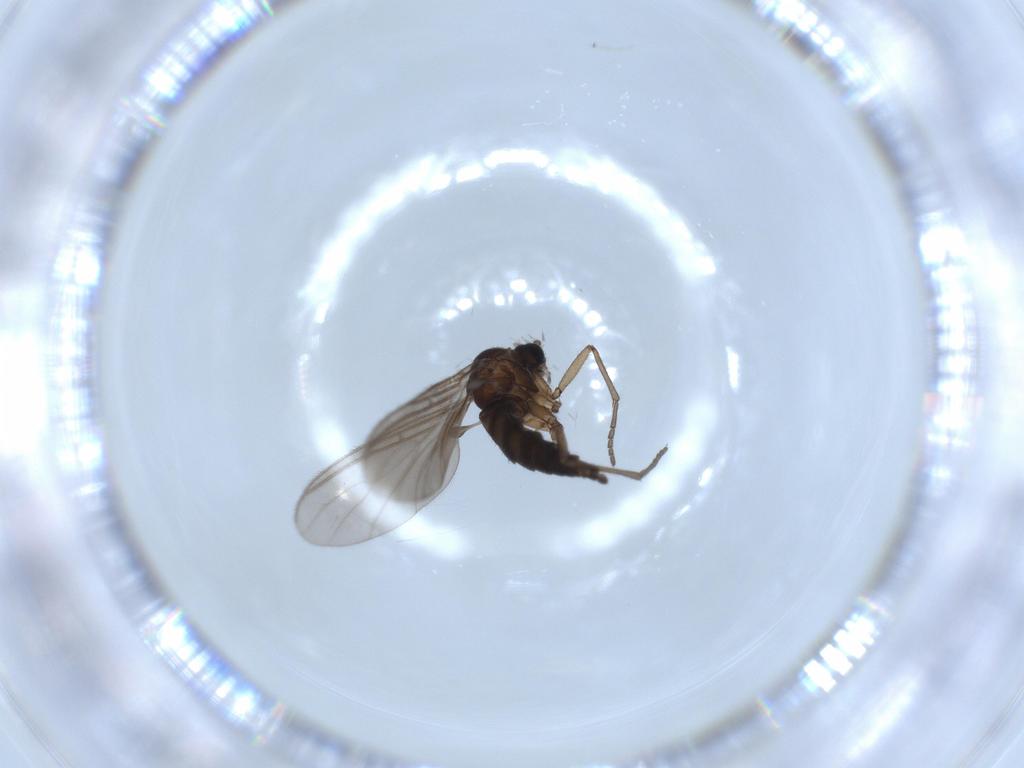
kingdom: Animalia
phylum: Arthropoda
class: Insecta
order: Diptera
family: Sciaridae
